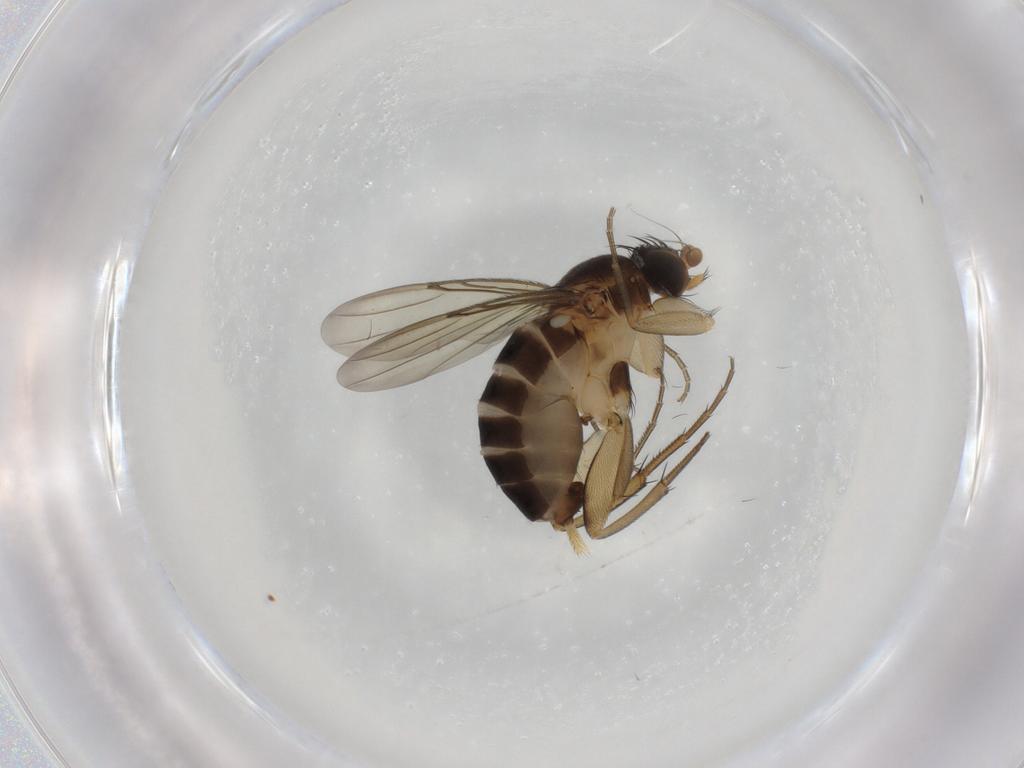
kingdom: Animalia
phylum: Arthropoda
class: Insecta
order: Diptera
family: Phoridae
